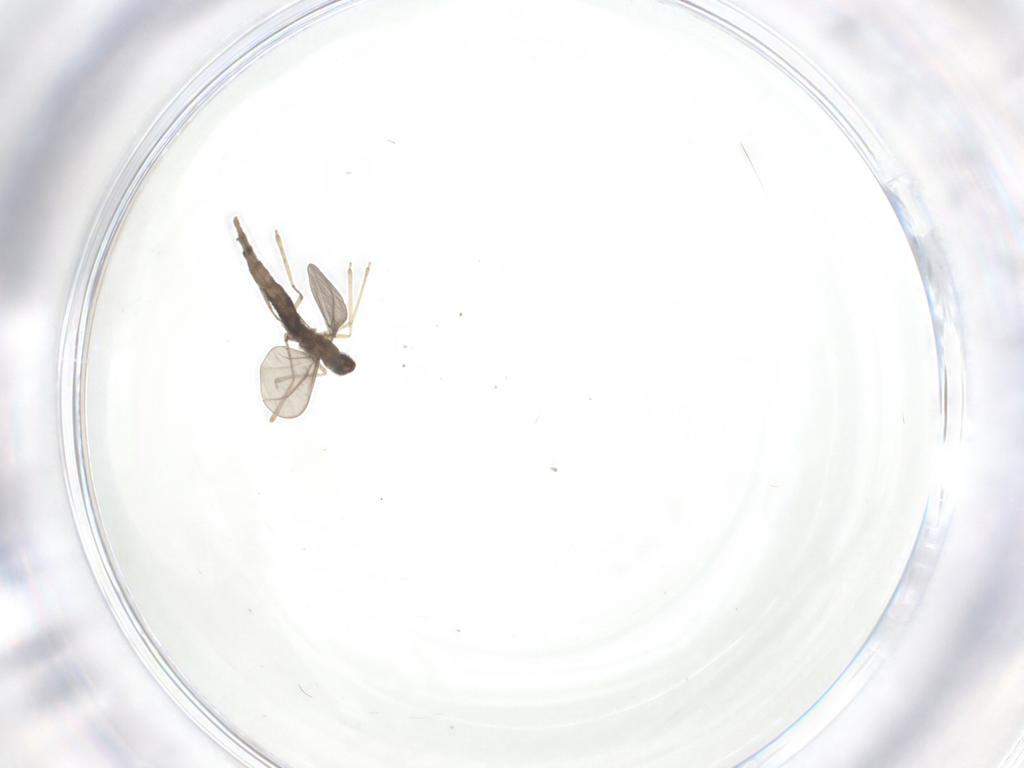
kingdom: Animalia
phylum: Arthropoda
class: Insecta
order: Diptera
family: Cecidomyiidae
